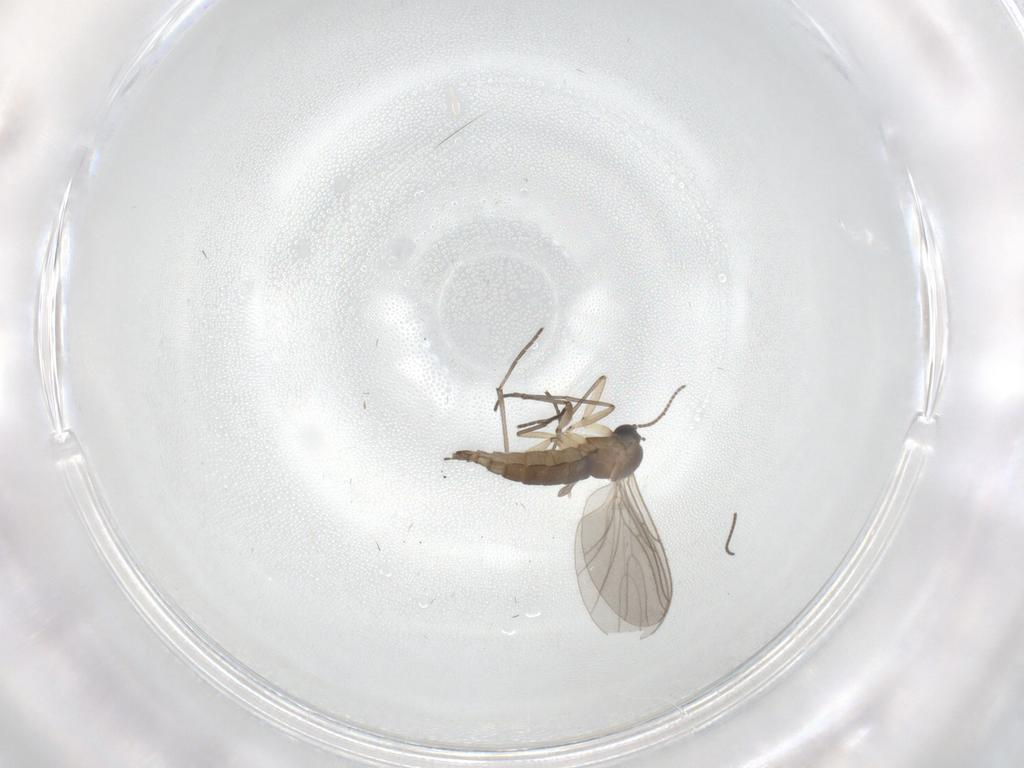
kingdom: Animalia
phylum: Arthropoda
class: Insecta
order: Diptera
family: Sciaridae
